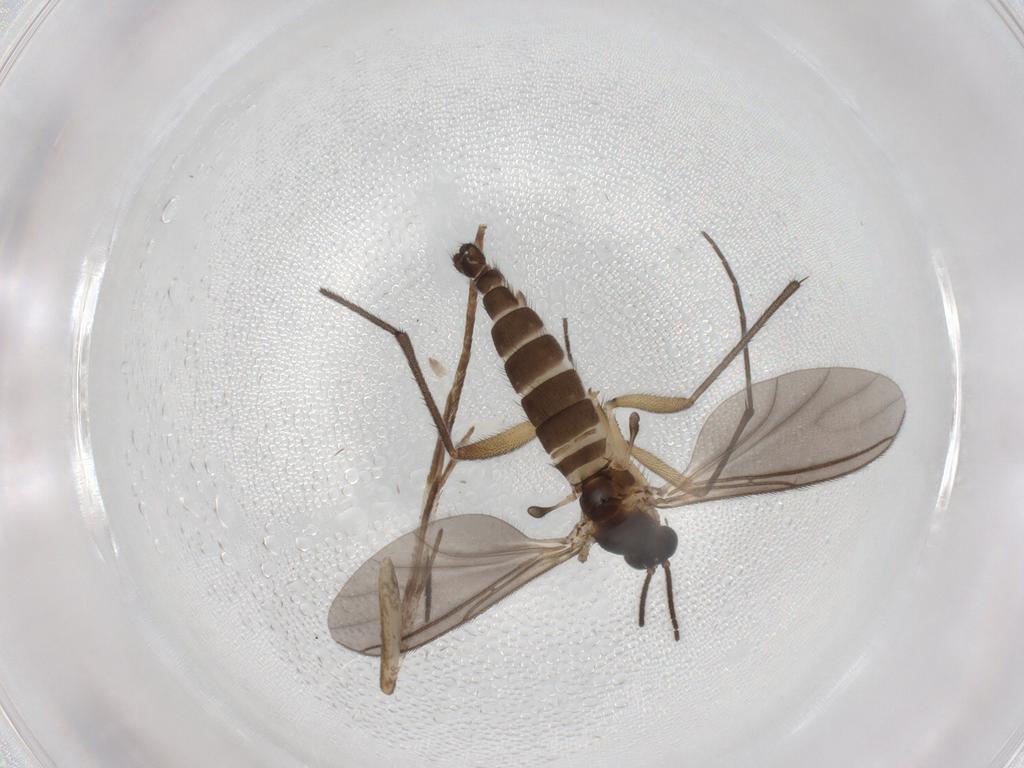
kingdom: Animalia
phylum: Arthropoda
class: Insecta
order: Diptera
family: Sciaridae
